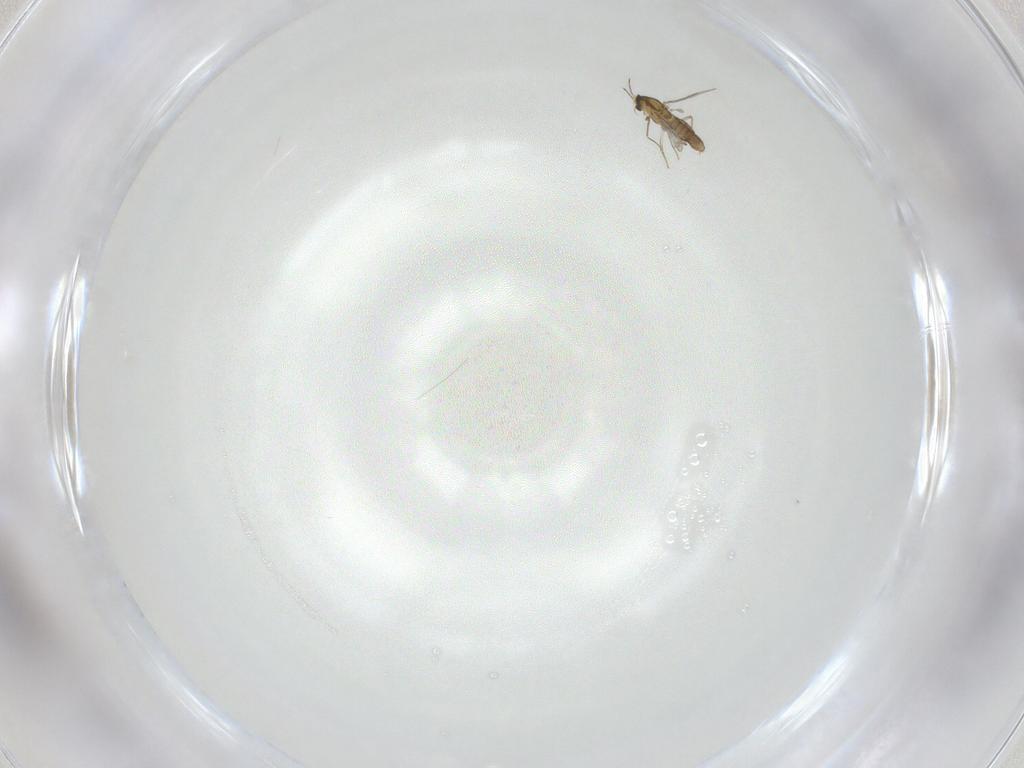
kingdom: Animalia
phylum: Arthropoda
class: Insecta
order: Diptera
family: Chironomidae
